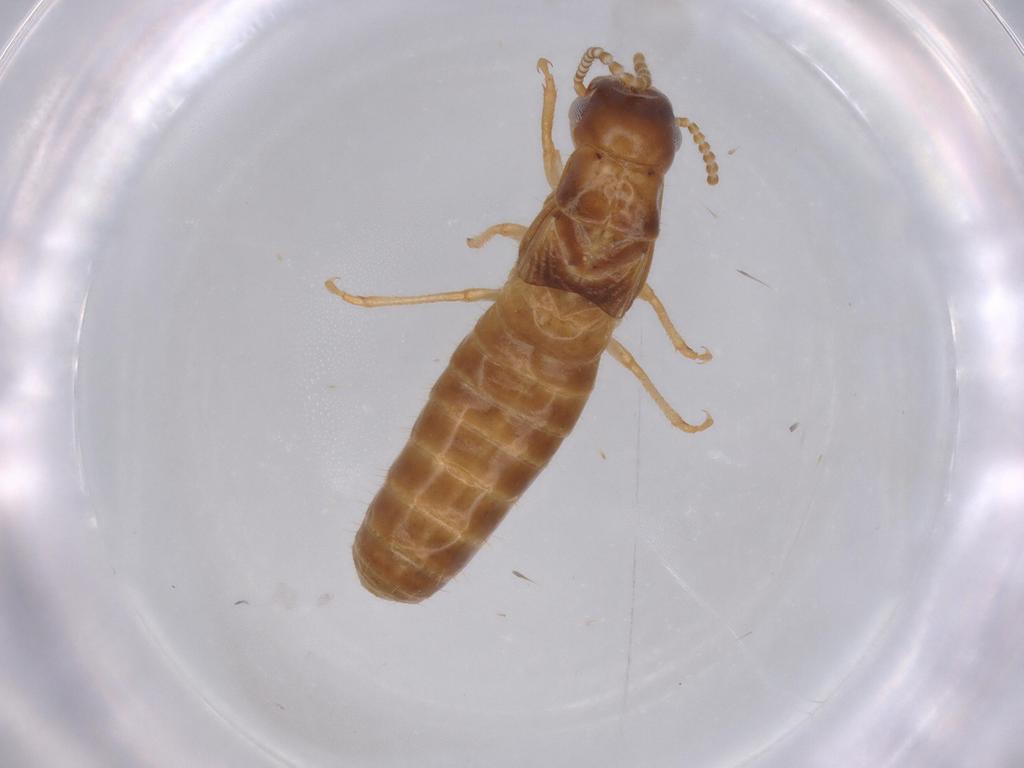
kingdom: Animalia
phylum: Arthropoda
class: Insecta
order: Blattodea
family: Kalotermitidae
